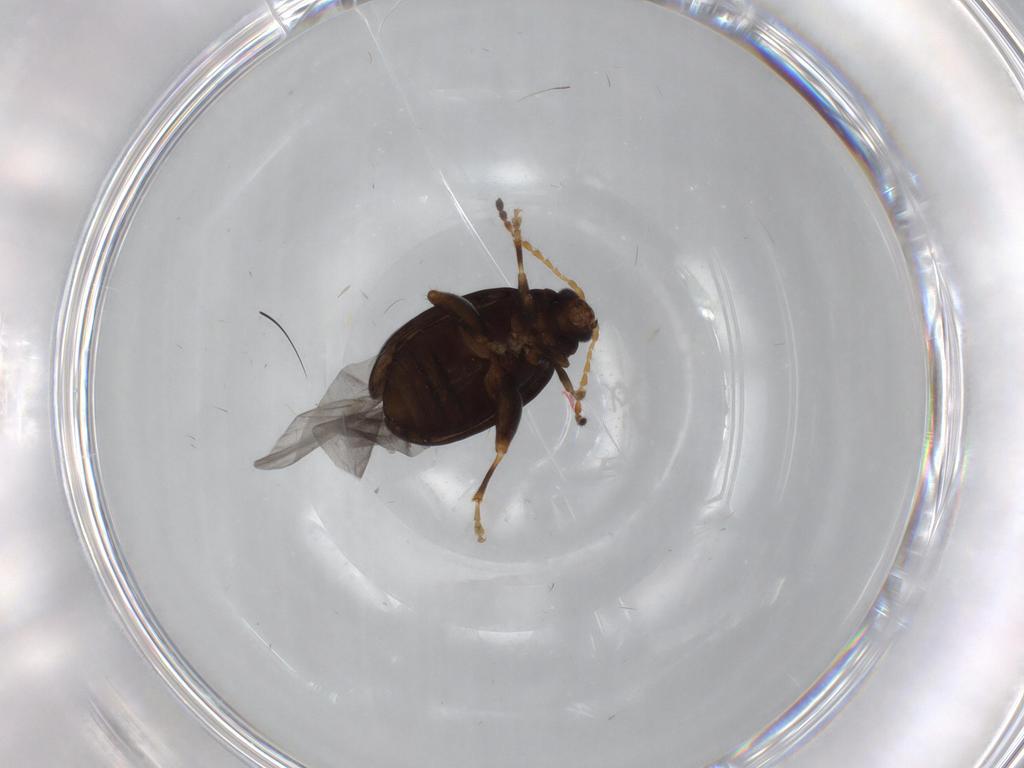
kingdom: Animalia
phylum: Arthropoda
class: Insecta
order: Coleoptera
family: Chrysomelidae
